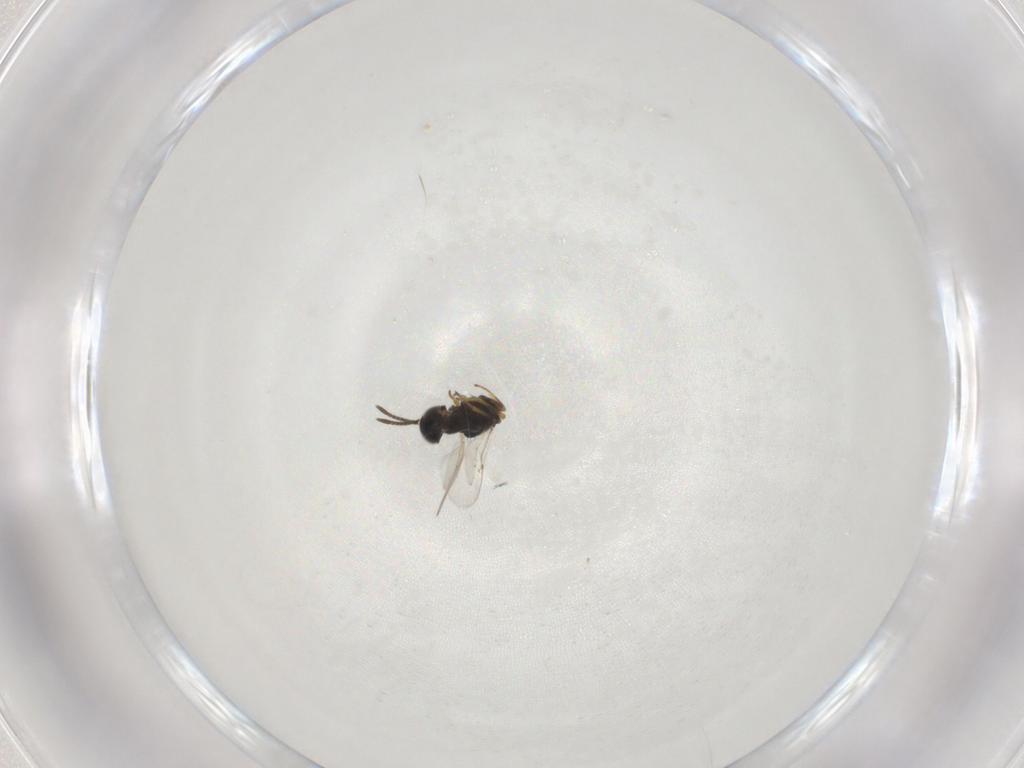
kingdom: Animalia
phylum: Arthropoda
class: Insecta
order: Hymenoptera
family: Encyrtidae
